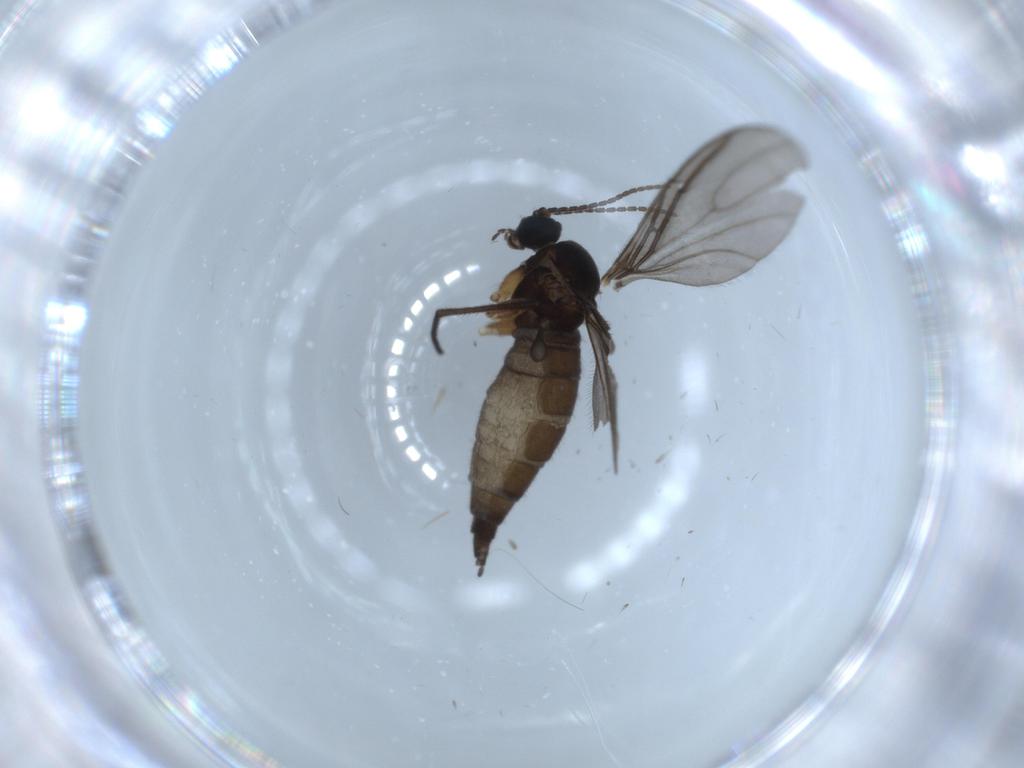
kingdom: Animalia
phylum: Arthropoda
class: Insecta
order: Diptera
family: Sciaridae
